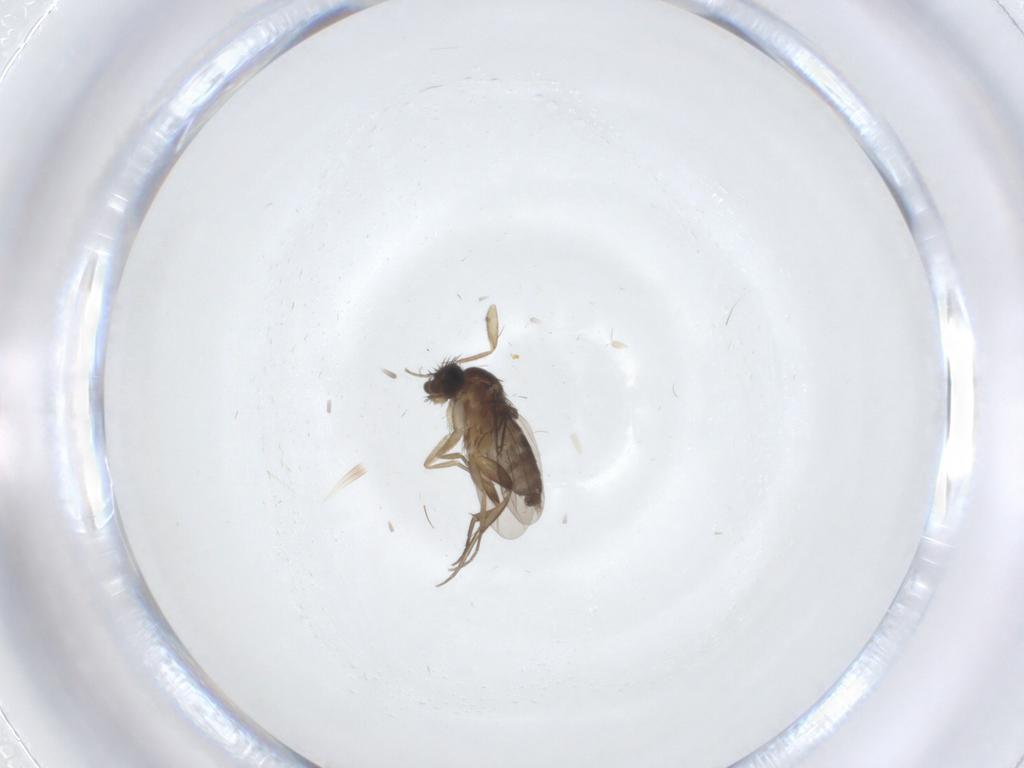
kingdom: Animalia
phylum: Arthropoda
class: Insecta
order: Diptera
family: Phoridae
